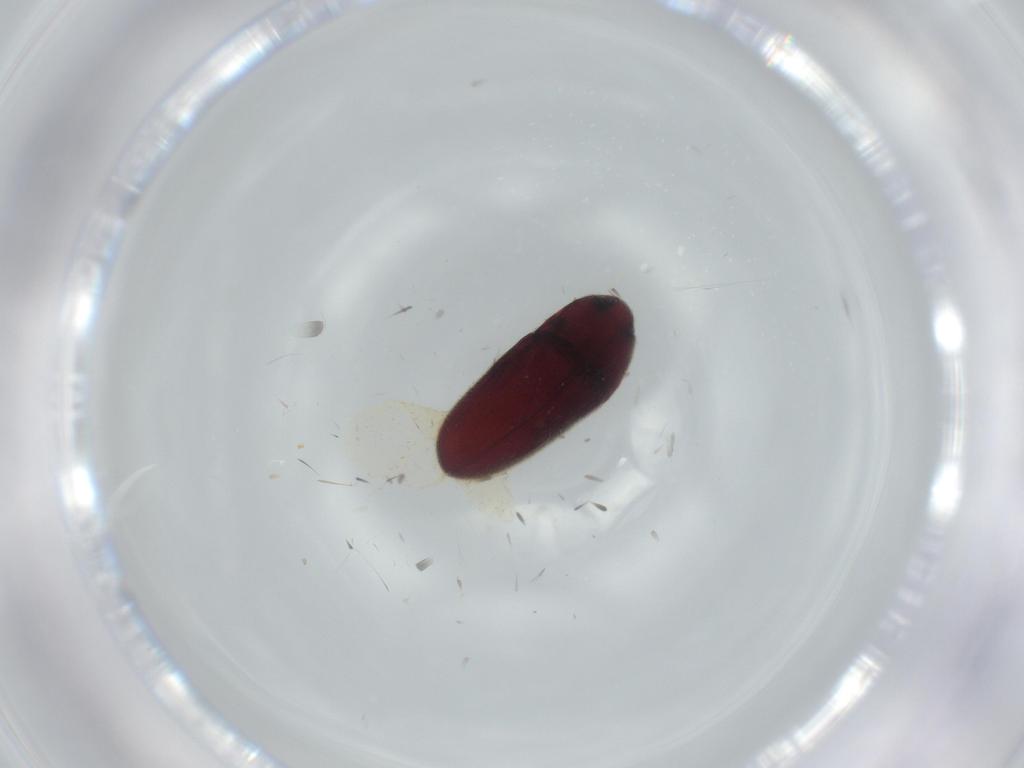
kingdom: Animalia
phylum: Arthropoda
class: Insecta
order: Coleoptera
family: Throscidae
